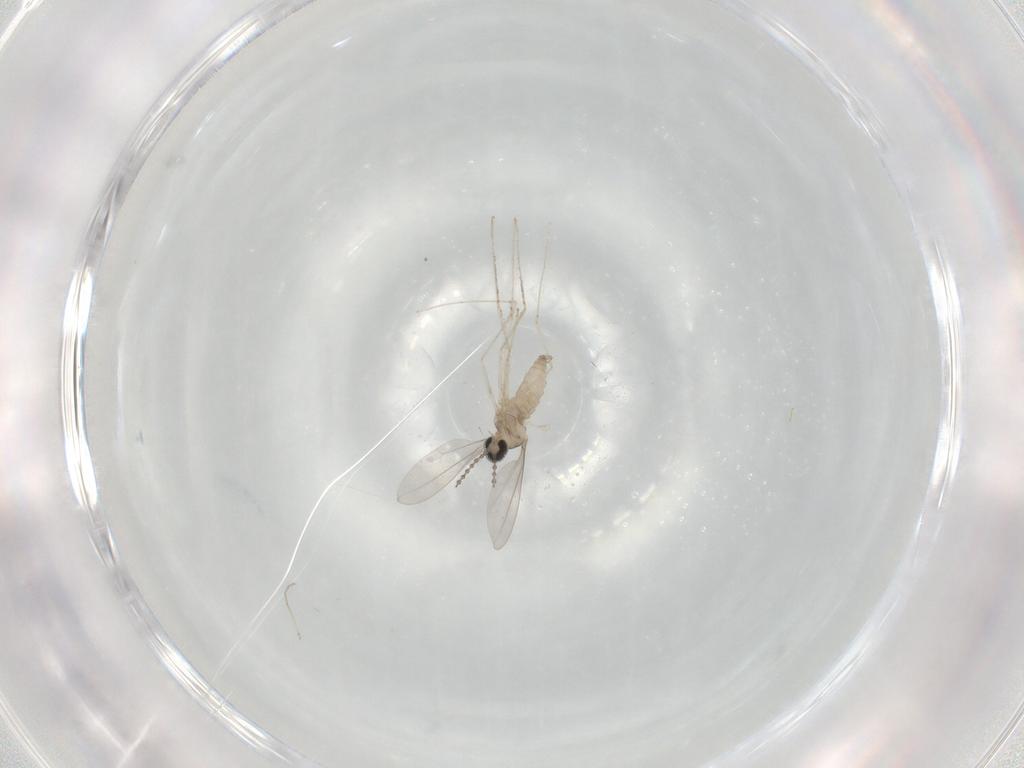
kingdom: Animalia
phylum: Arthropoda
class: Insecta
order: Diptera
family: Cecidomyiidae
